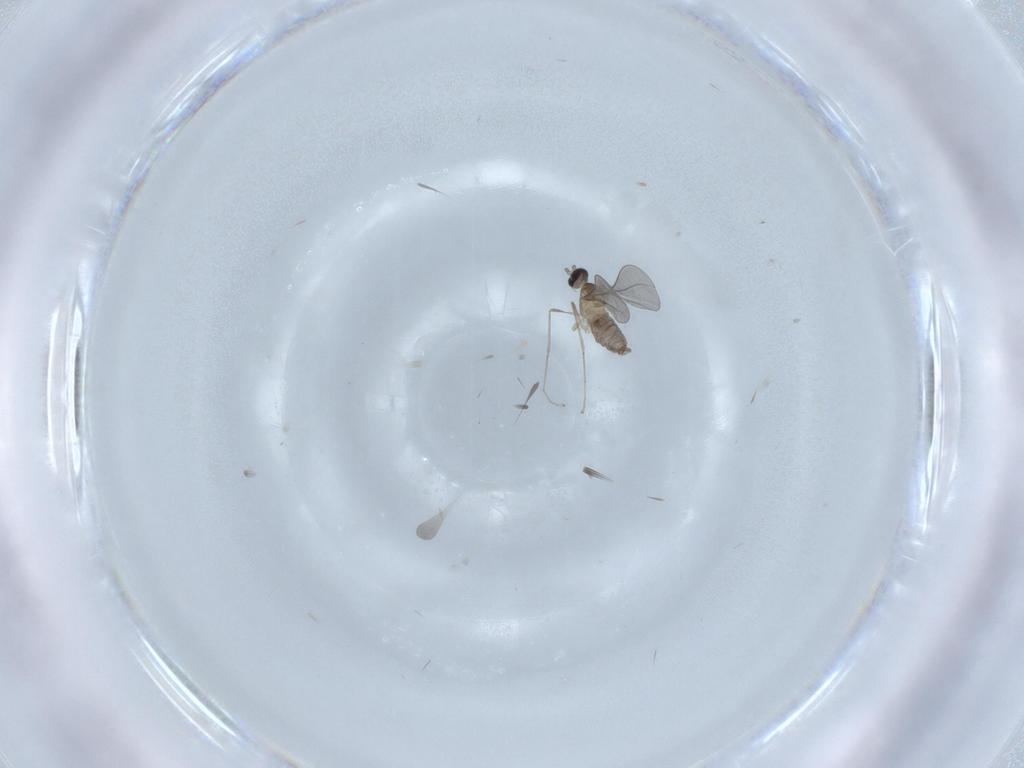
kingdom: Animalia
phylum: Arthropoda
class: Insecta
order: Diptera
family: Cecidomyiidae
